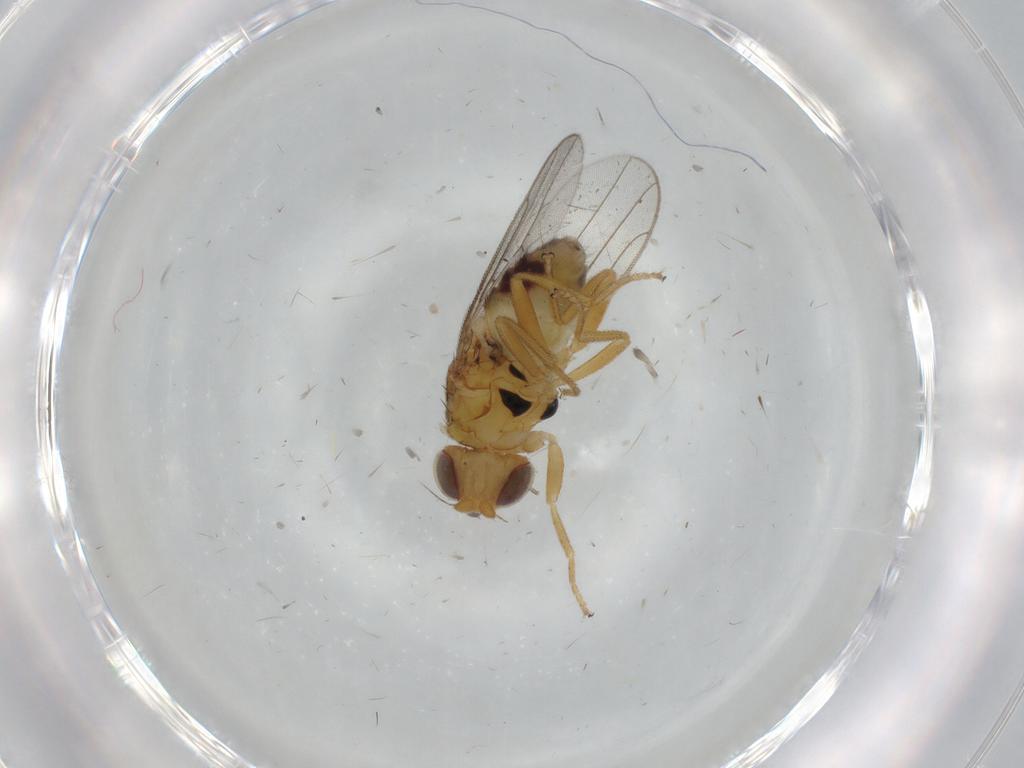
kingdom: Animalia
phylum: Arthropoda
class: Insecta
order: Diptera
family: Chloropidae
